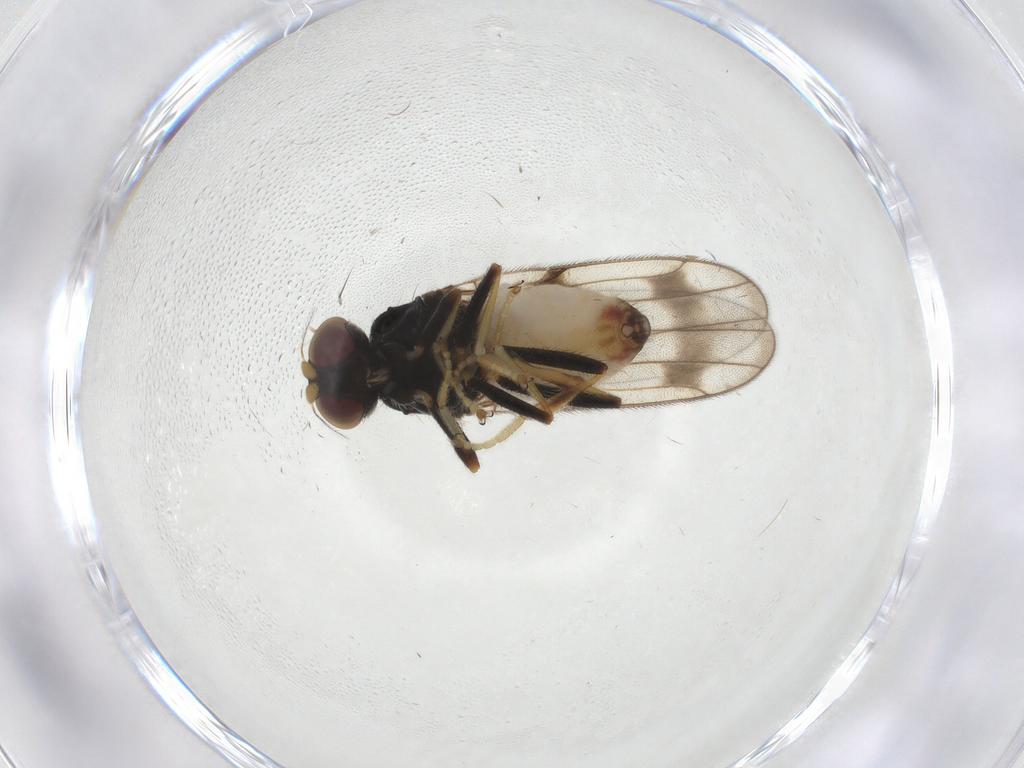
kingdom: Animalia
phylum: Arthropoda
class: Insecta
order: Diptera
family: Chloropidae
